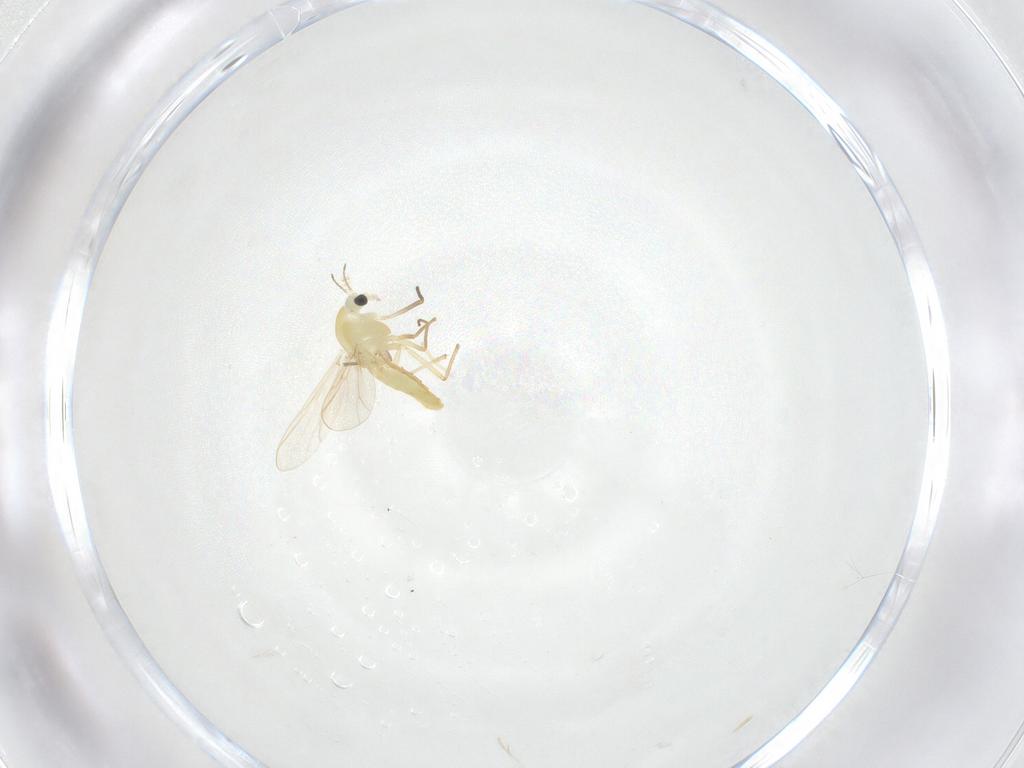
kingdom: Animalia
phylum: Arthropoda
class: Insecta
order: Diptera
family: Chironomidae
